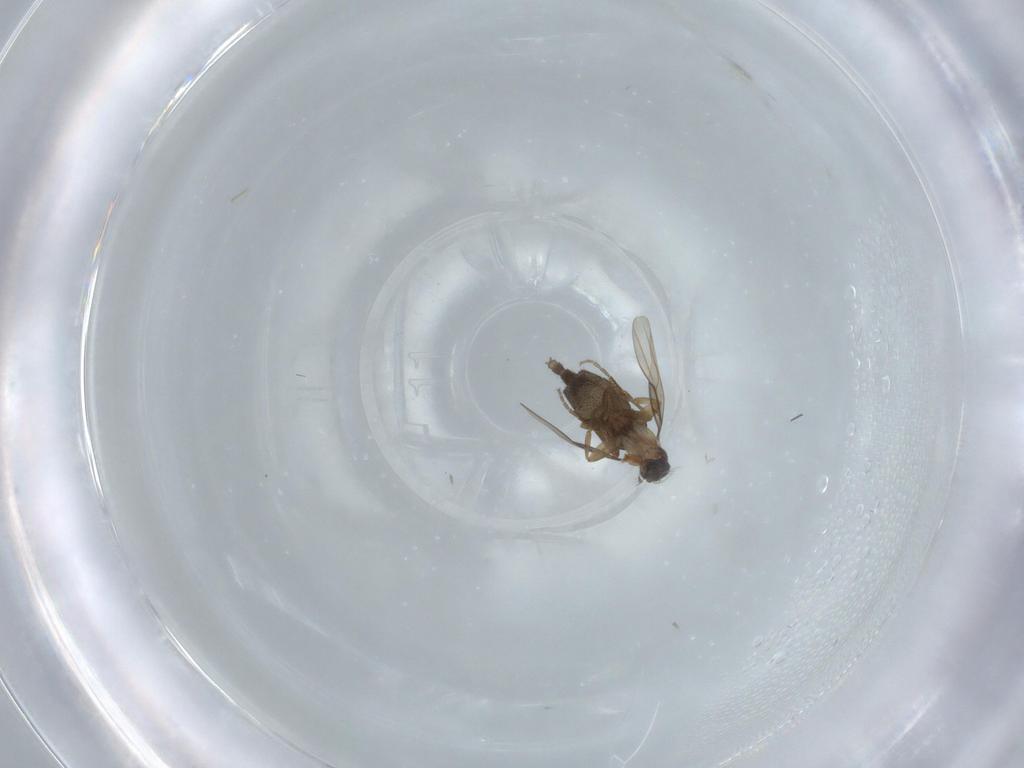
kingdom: Animalia
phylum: Arthropoda
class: Insecta
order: Diptera
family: Phoridae
